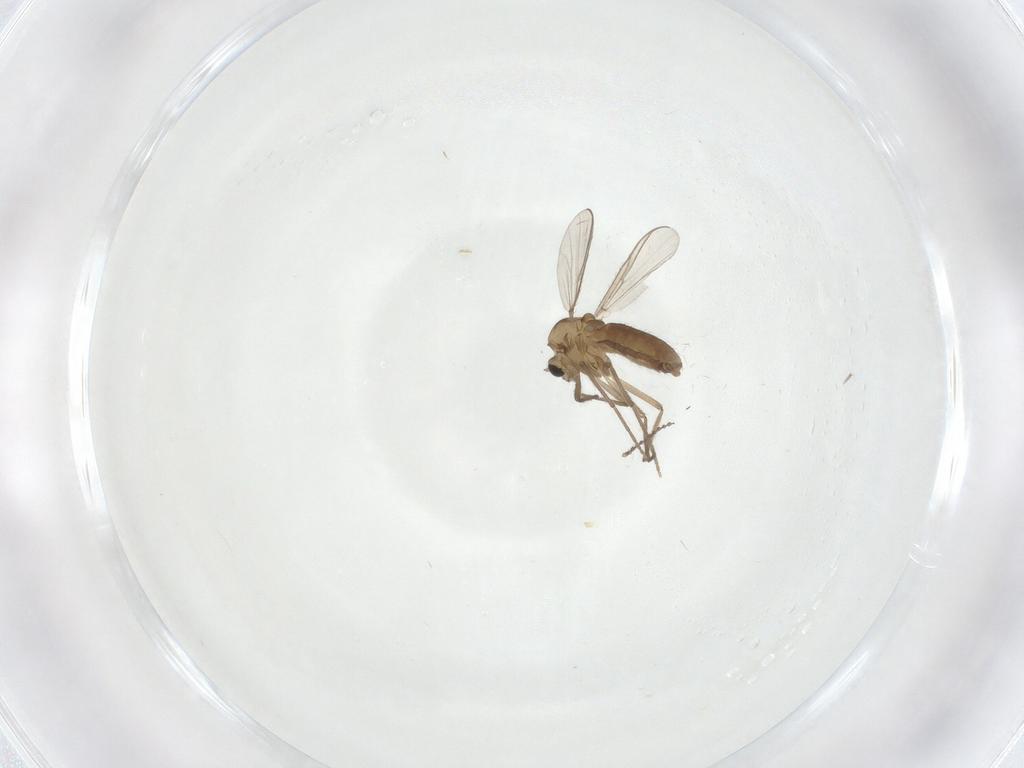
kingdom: Animalia
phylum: Arthropoda
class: Insecta
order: Diptera
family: Chironomidae
